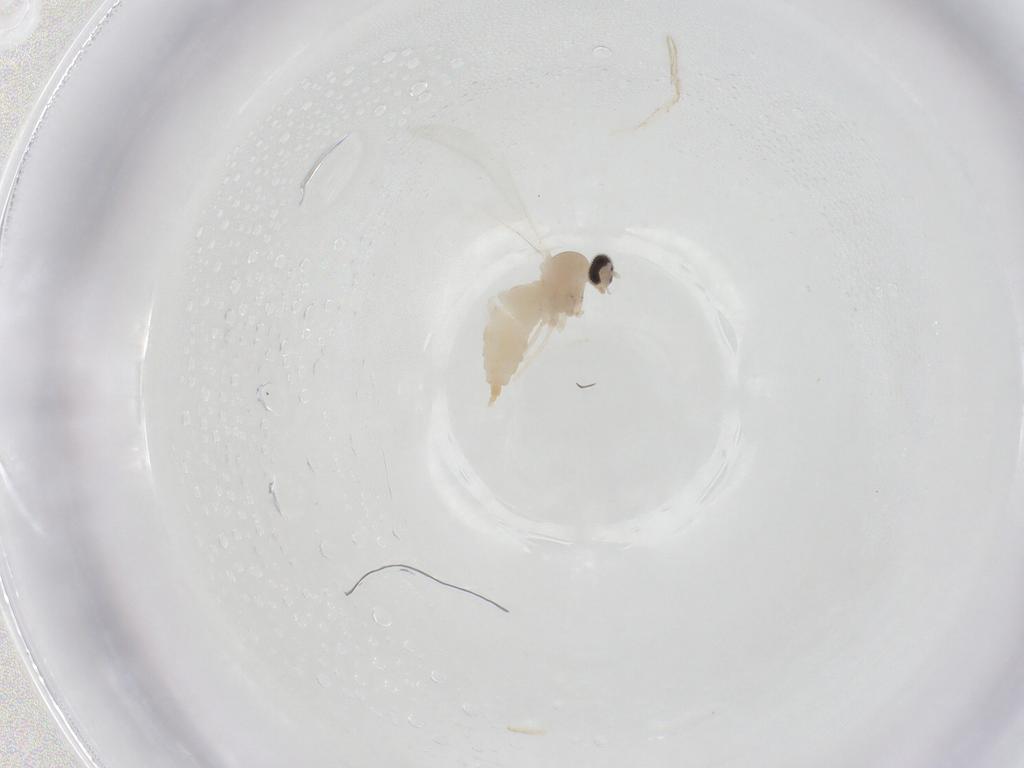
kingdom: Animalia
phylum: Arthropoda
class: Insecta
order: Diptera
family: Cecidomyiidae
